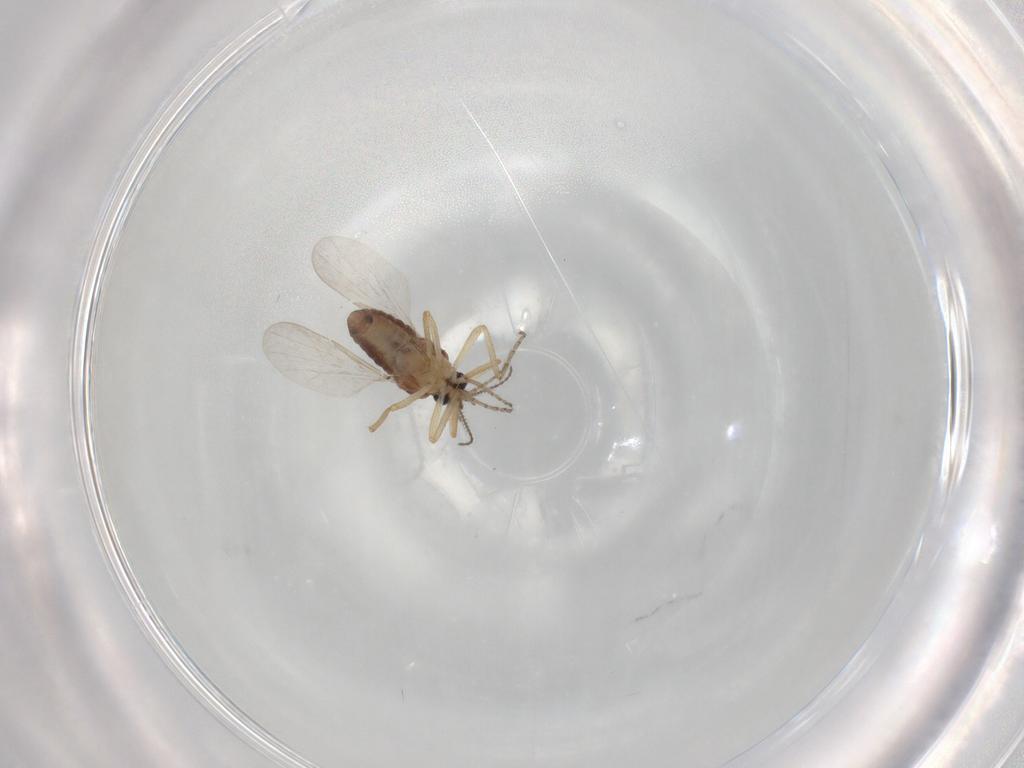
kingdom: Animalia
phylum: Arthropoda
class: Insecta
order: Diptera
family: Ceratopogonidae
